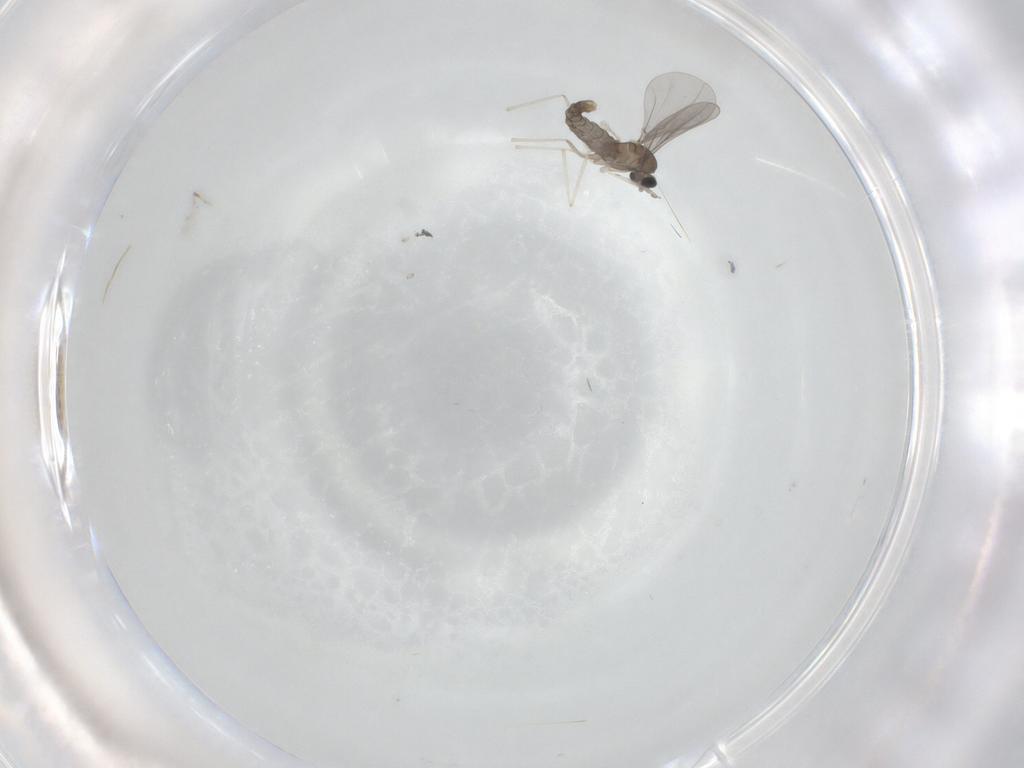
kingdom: Animalia
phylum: Arthropoda
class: Insecta
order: Diptera
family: Cecidomyiidae
